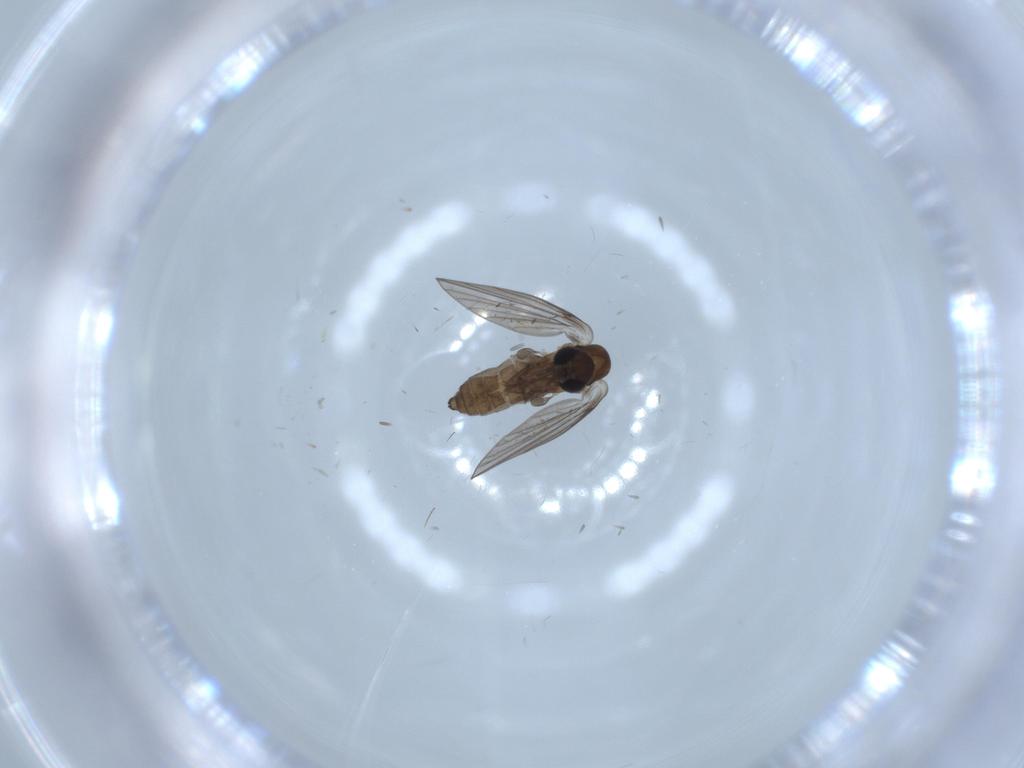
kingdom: Animalia
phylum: Arthropoda
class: Insecta
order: Diptera
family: Psychodidae
